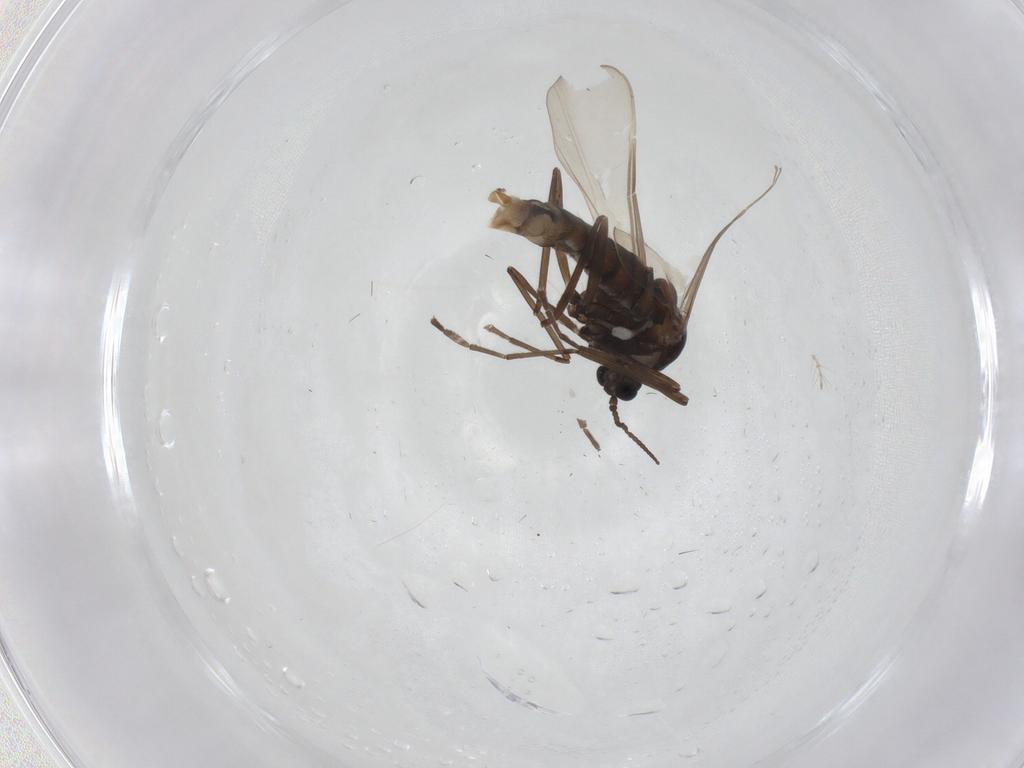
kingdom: Animalia
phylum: Arthropoda
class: Insecta
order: Diptera
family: Cecidomyiidae
